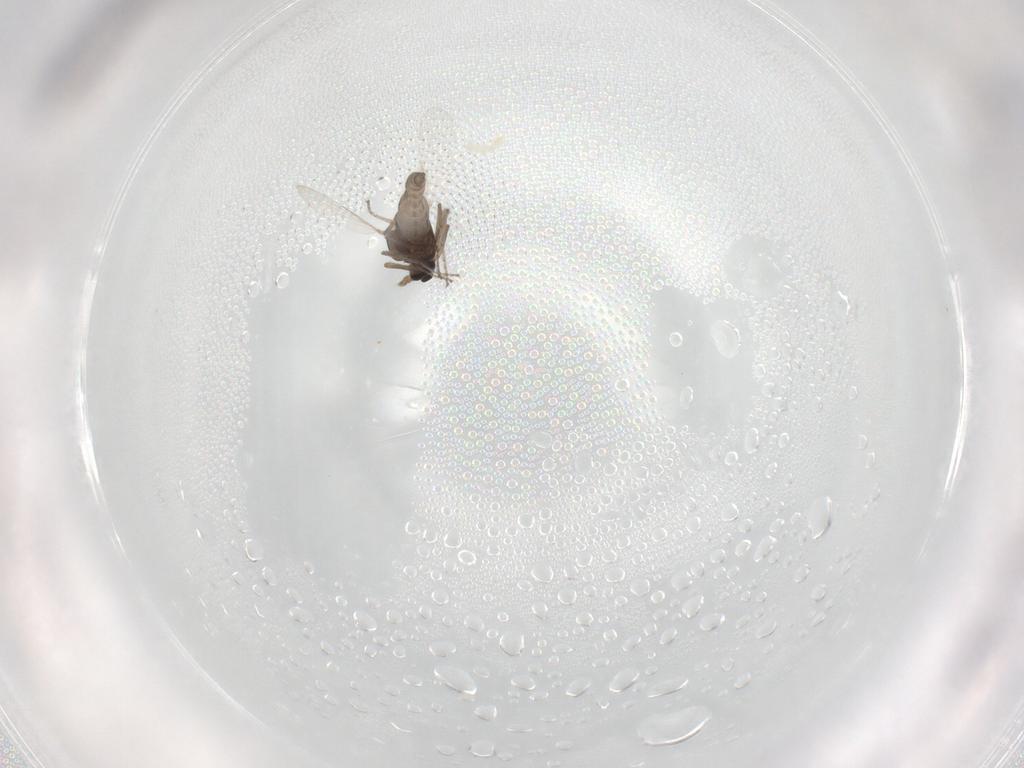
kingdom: Animalia
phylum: Arthropoda
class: Insecta
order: Diptera
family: Ceratopogonidae
